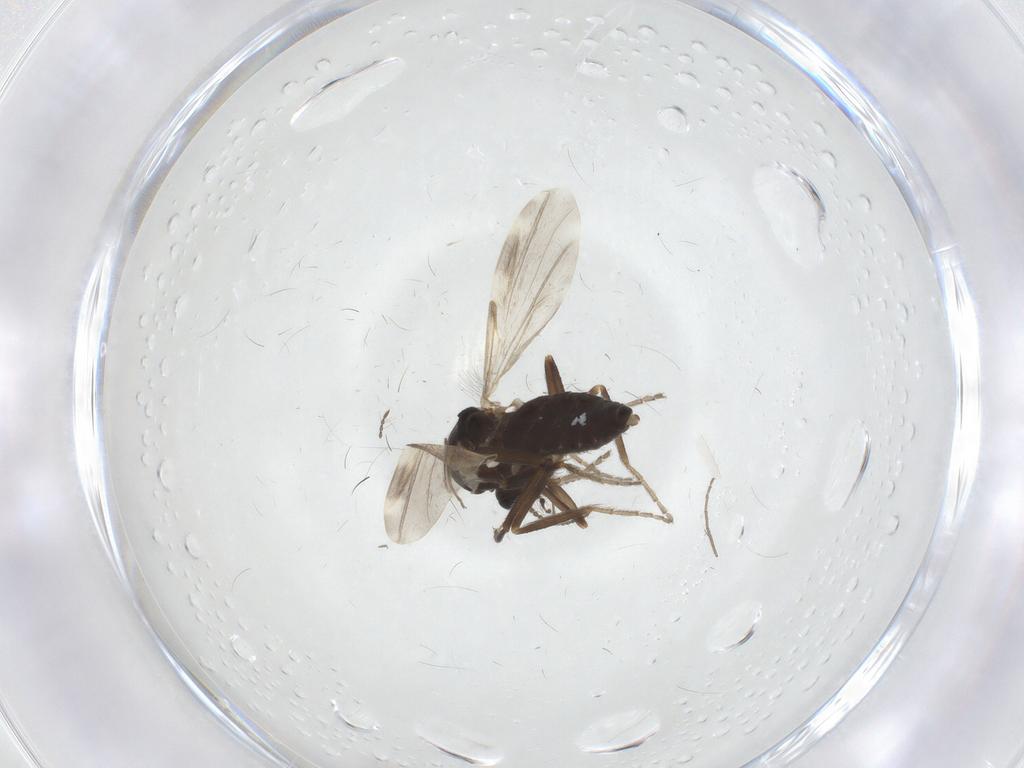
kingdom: Animalia
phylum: Arthropoda
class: Insecta
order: Diptera
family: Ceratopogonidae
